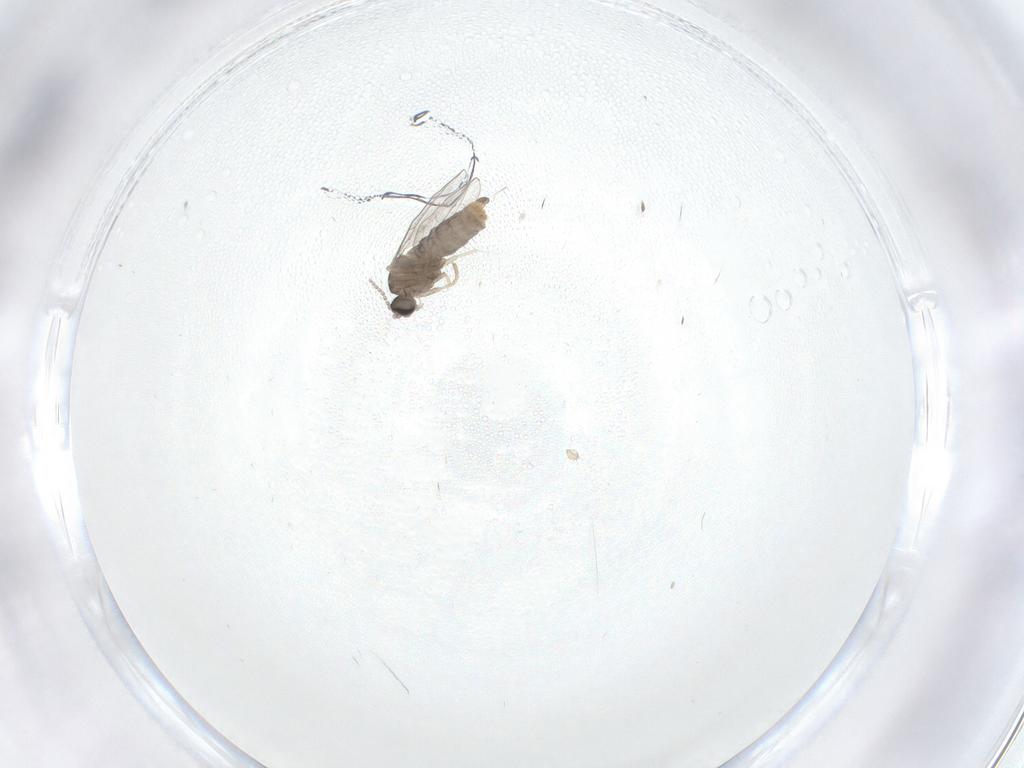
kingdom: Animalia
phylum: Arthropoda
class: Insecta
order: Diptera
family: Cecidomyiidae
